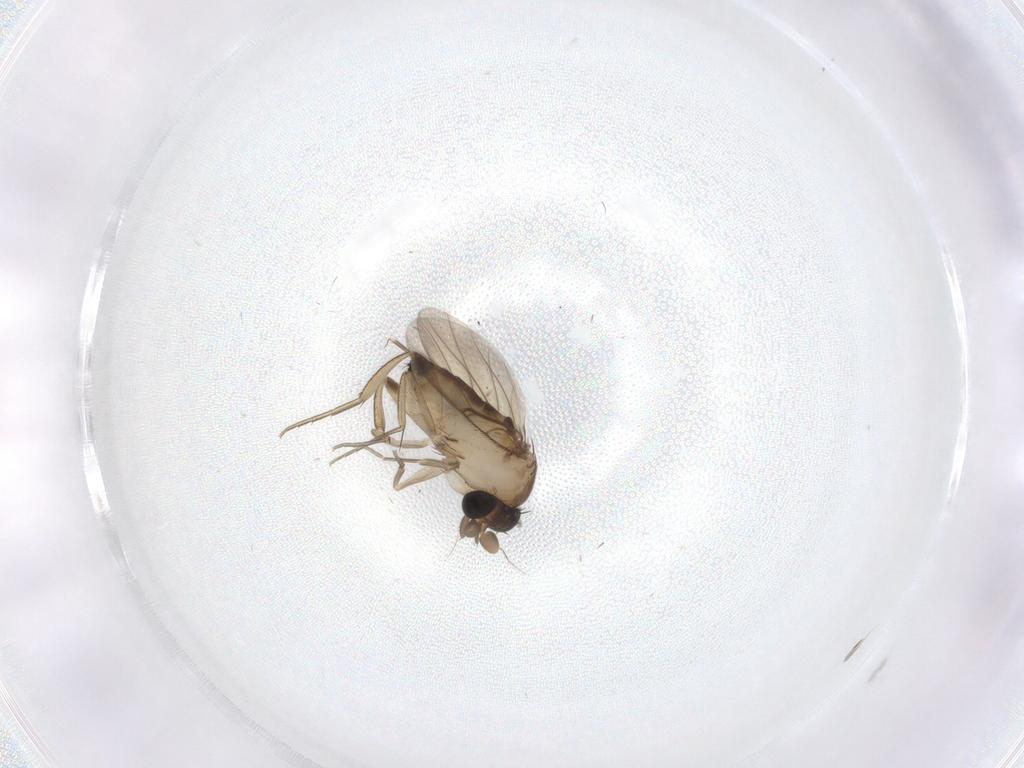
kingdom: Animalia
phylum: Arthropoda
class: Insecta
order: Diptera
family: Phoridae
